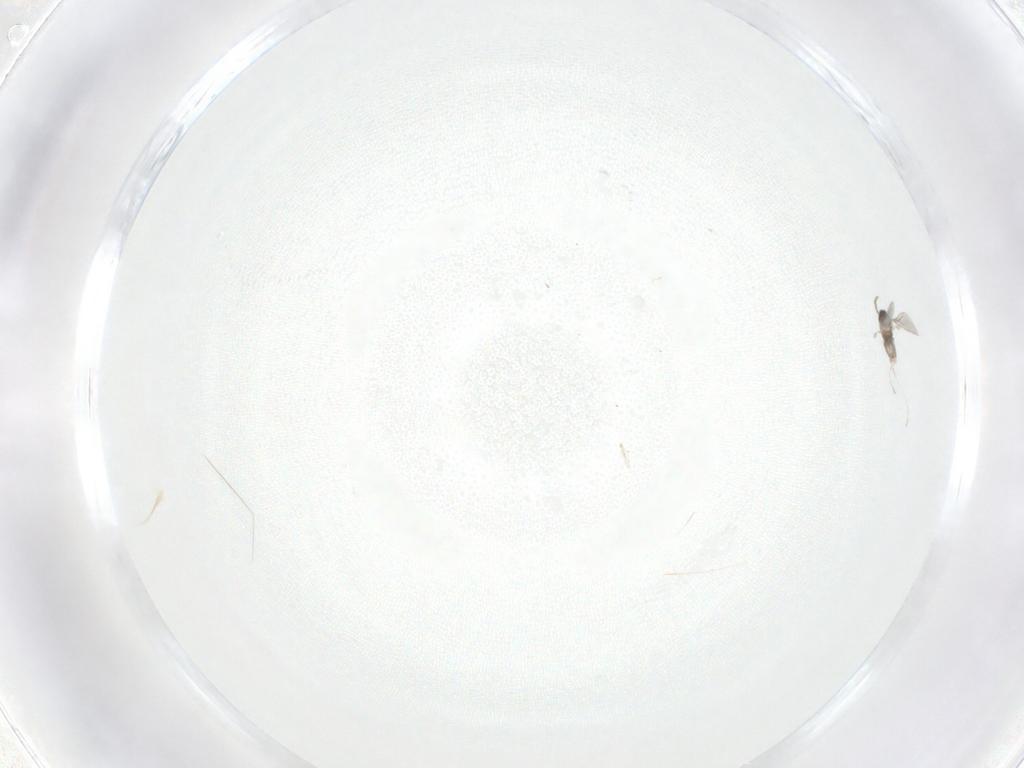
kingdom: Animalia
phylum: Arthropoda
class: Insecta
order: Diptera
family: Cecidomyiidae
